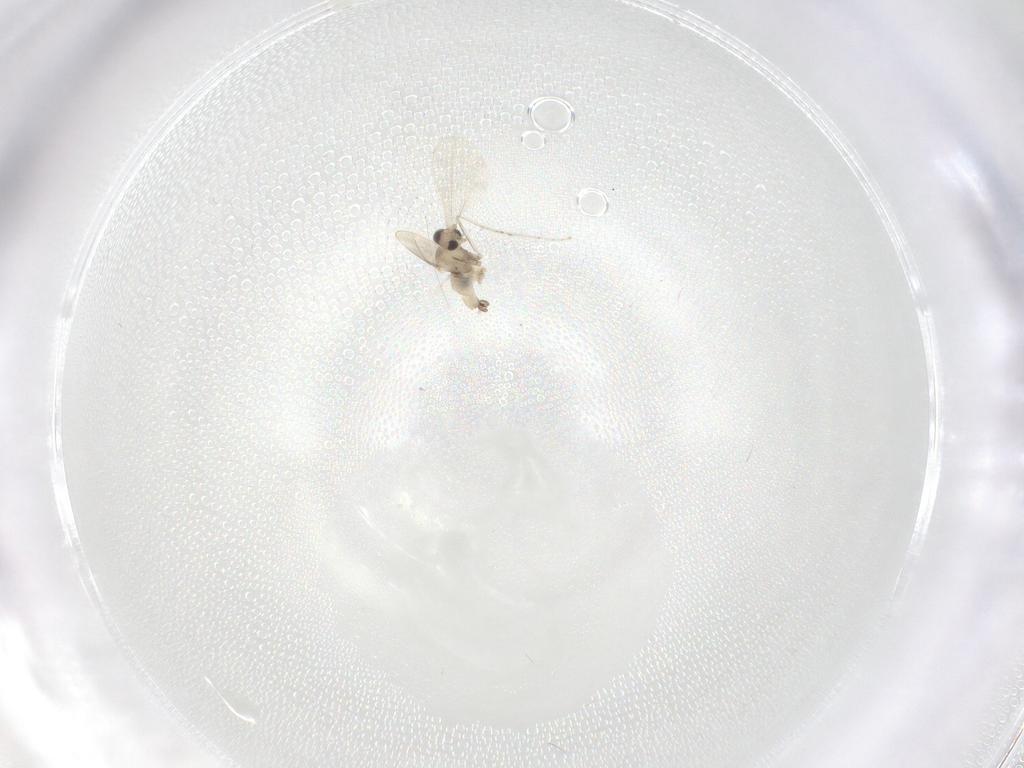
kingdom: Animalia
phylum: Arthropoda
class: Insecta
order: Diptera
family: Cecidomyiidae
